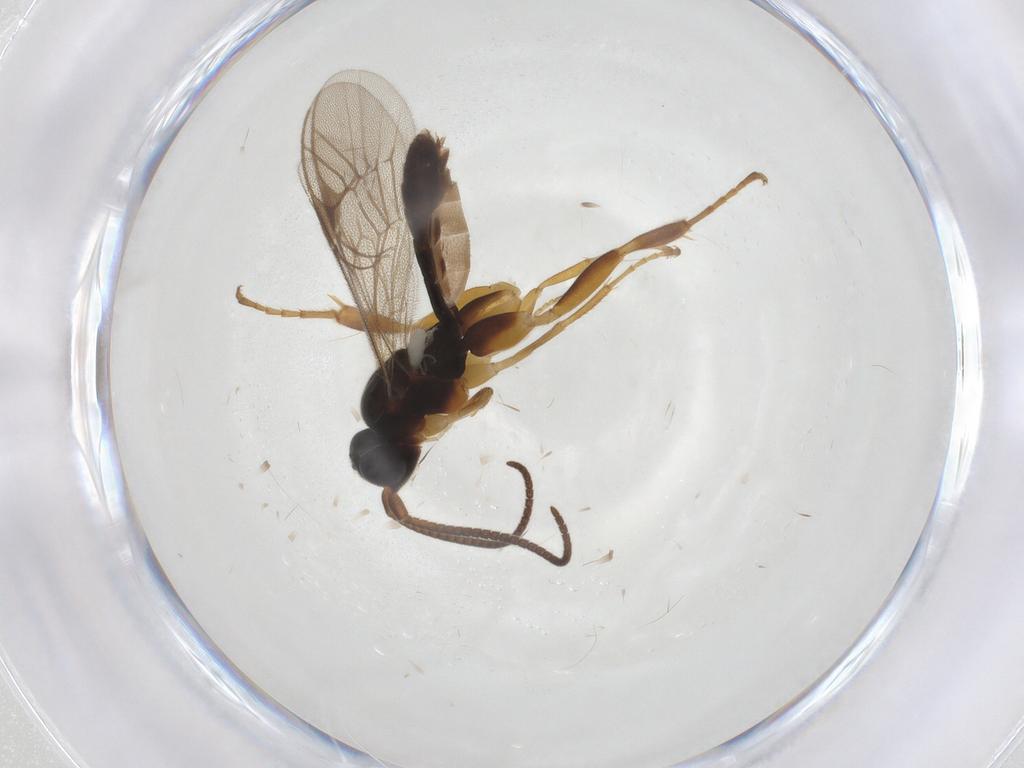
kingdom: Animalia
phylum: Arthropoda
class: Insecta
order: Hymenoptera
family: Ichneumonidae
